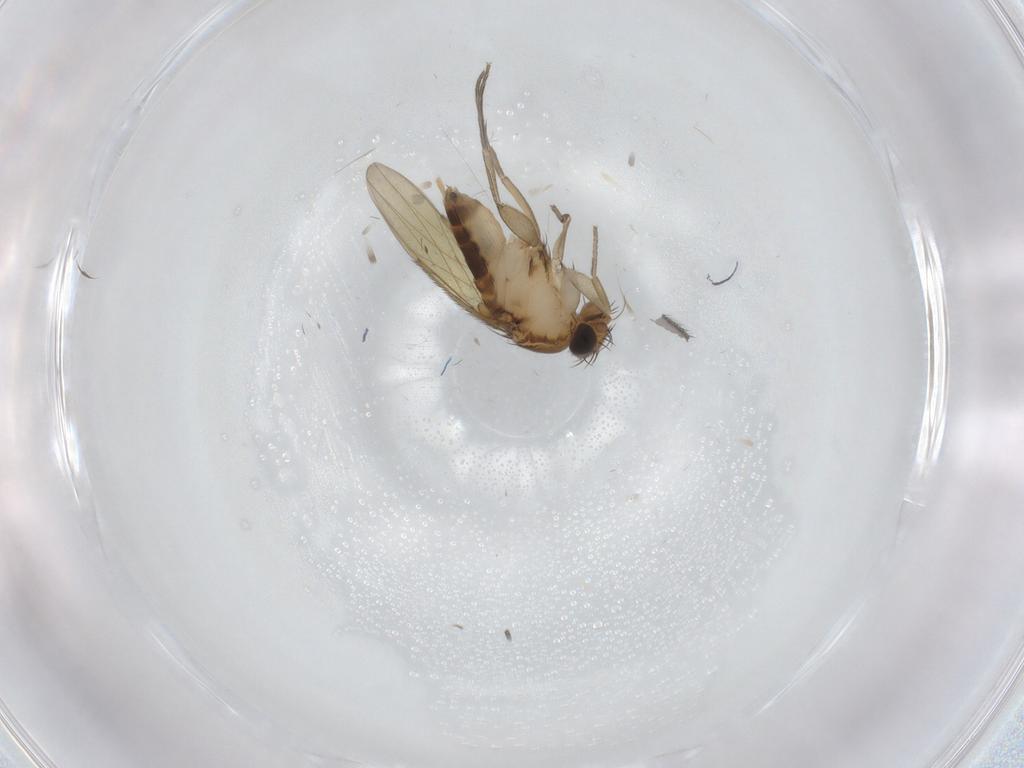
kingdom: Animalia
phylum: Arthropoda
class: Insecta
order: Diptera
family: Phoridae
